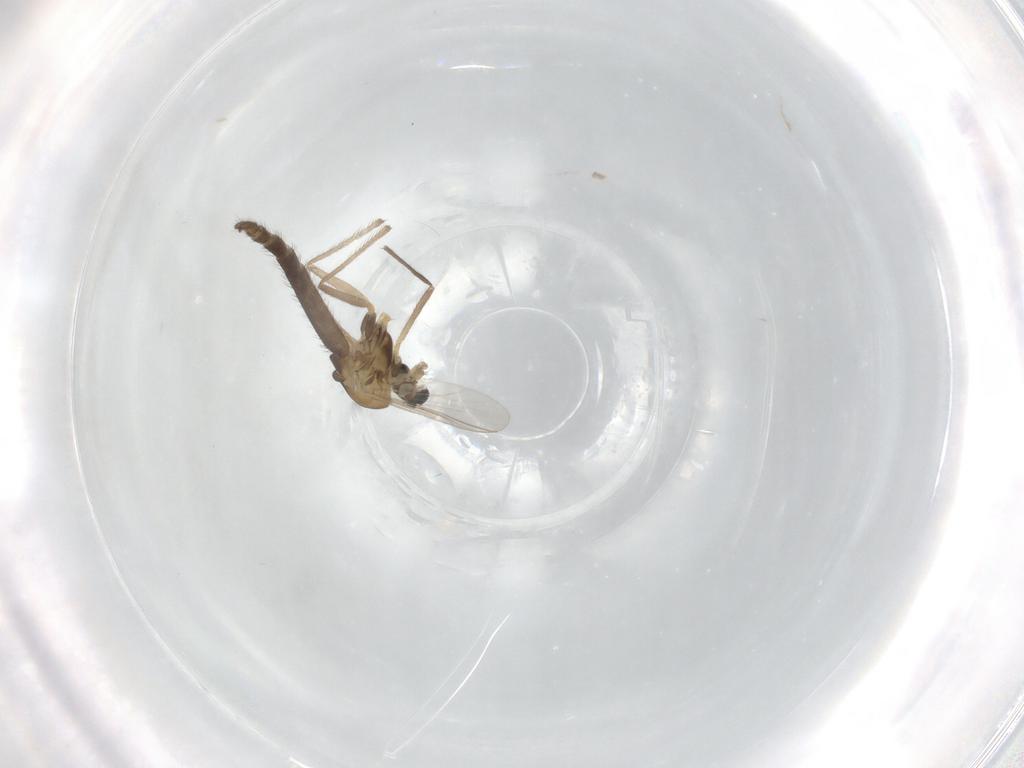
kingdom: Animalia
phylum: Arthropoda
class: Insecta
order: Diptera
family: Chironomidae
